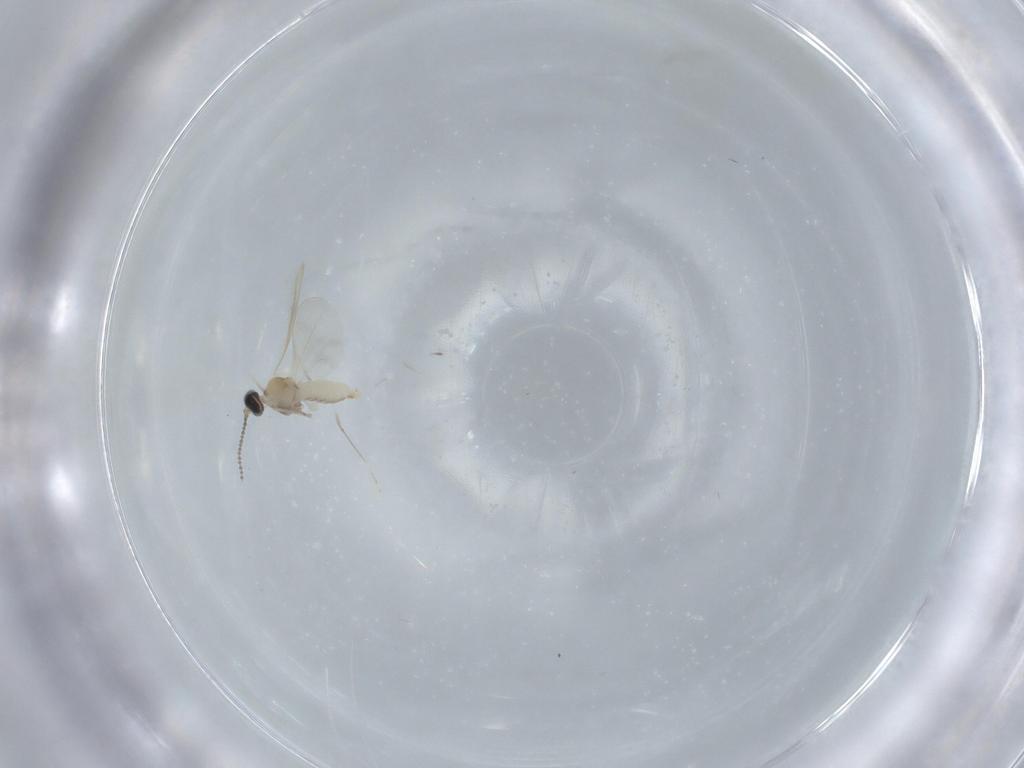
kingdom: Animalia
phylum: Arthropoda
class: Insecta
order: Diptera
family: Cecidomyiidae
